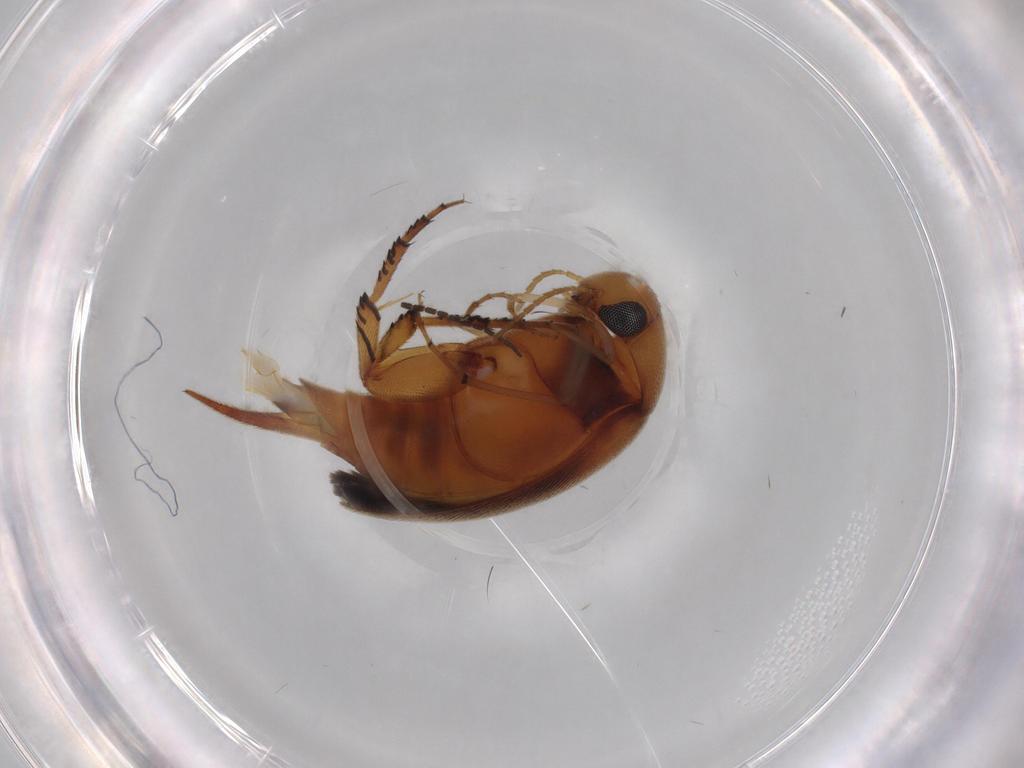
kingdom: Animalia
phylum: Arthropoda
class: Insecta
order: Coleoptera
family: Mordellidae
